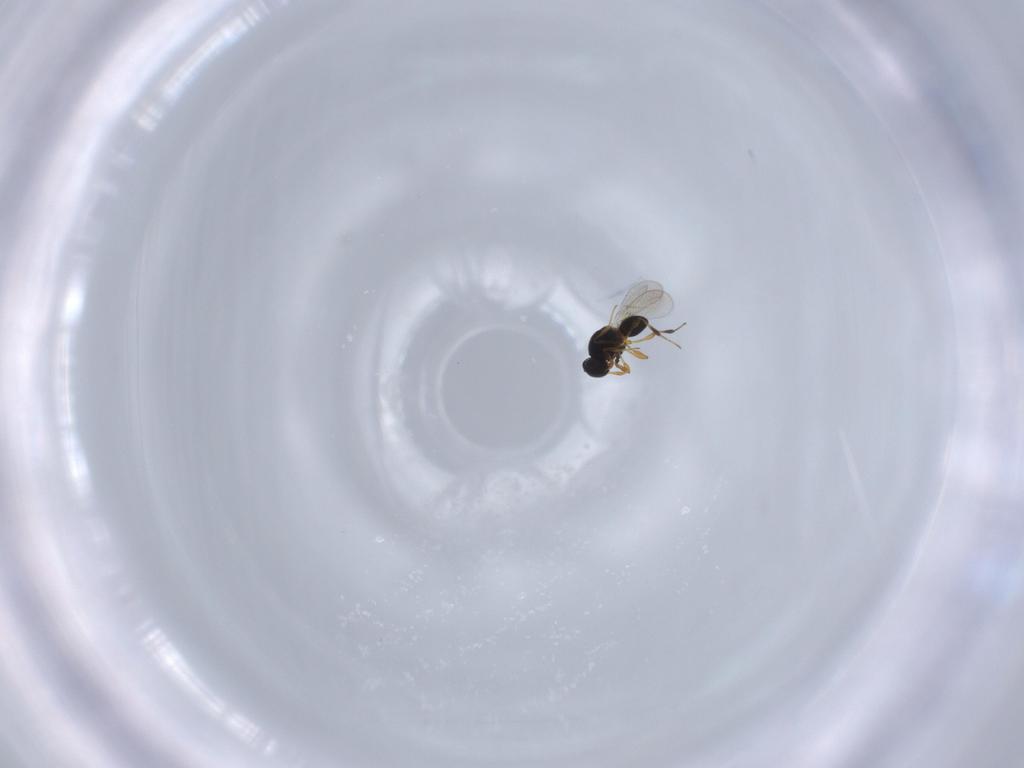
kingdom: Animalia
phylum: Arthropoda
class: Insecta
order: Hymenoptera
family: Platygastridae
